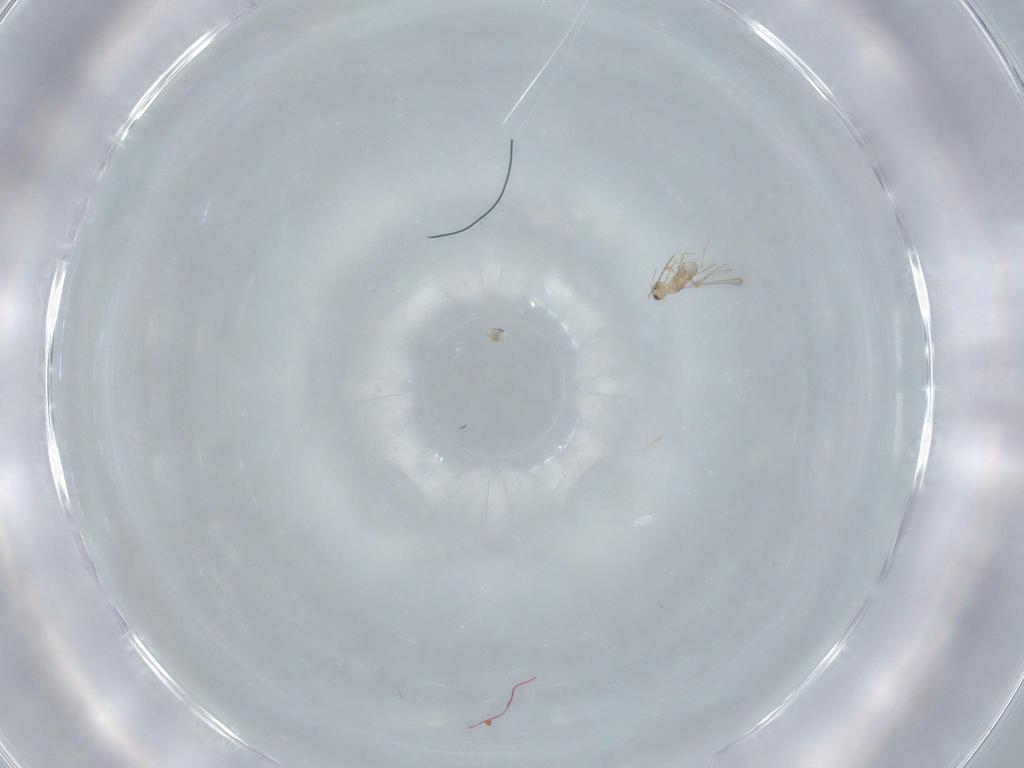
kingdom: Animalia
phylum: Arthropoda
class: Insecta
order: Hymenoptera
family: Mymaridae
